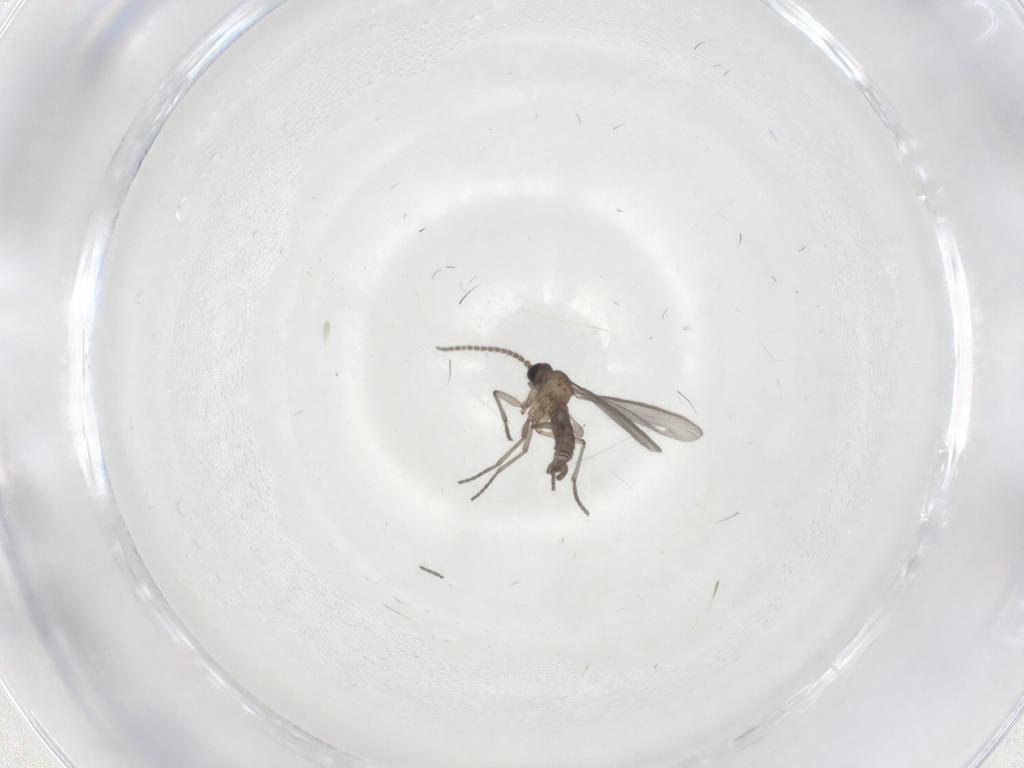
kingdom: Animalia
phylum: Arthropoda
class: Insecta
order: Diptera
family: Sciaridae
